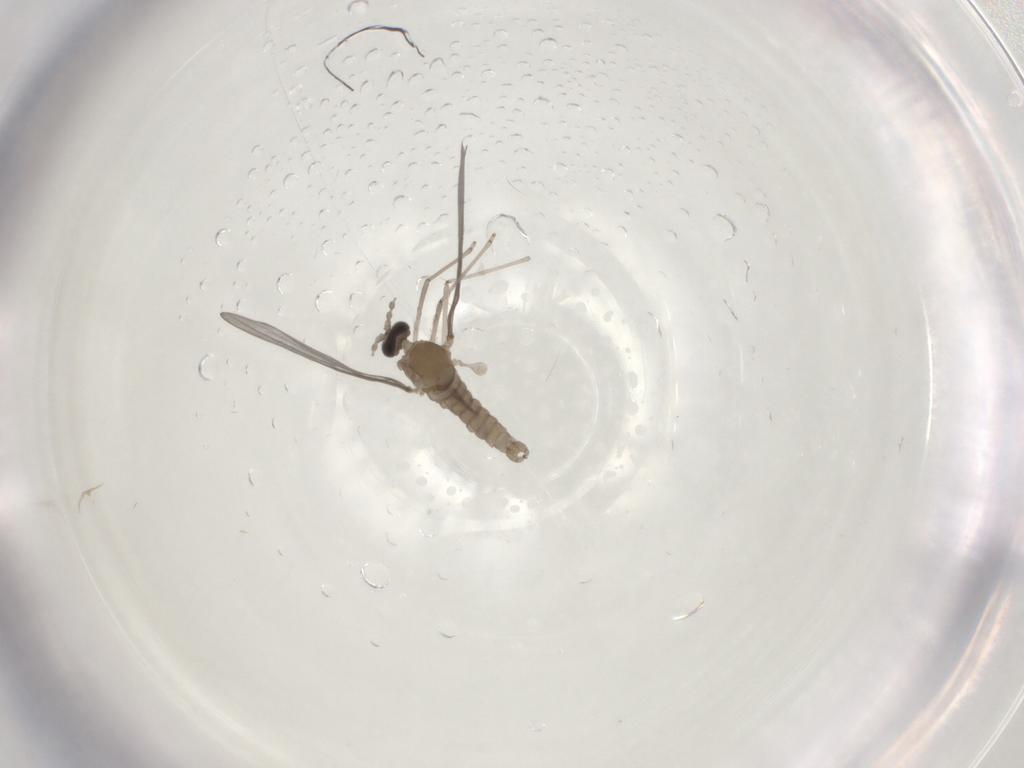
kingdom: Animalia
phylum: Arthropoda
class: Insecta
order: Diptera
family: Cecidomyiidae
